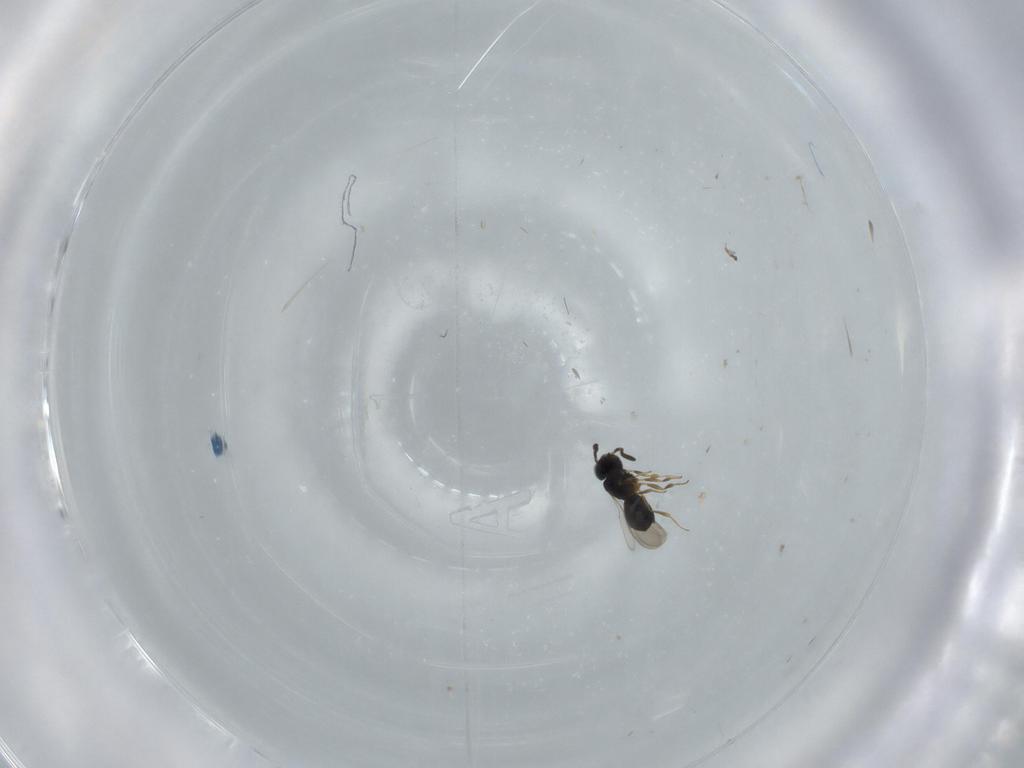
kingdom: Animalia
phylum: Arthropoda
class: Insecta
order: Hymenoptera
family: Scelionidae
